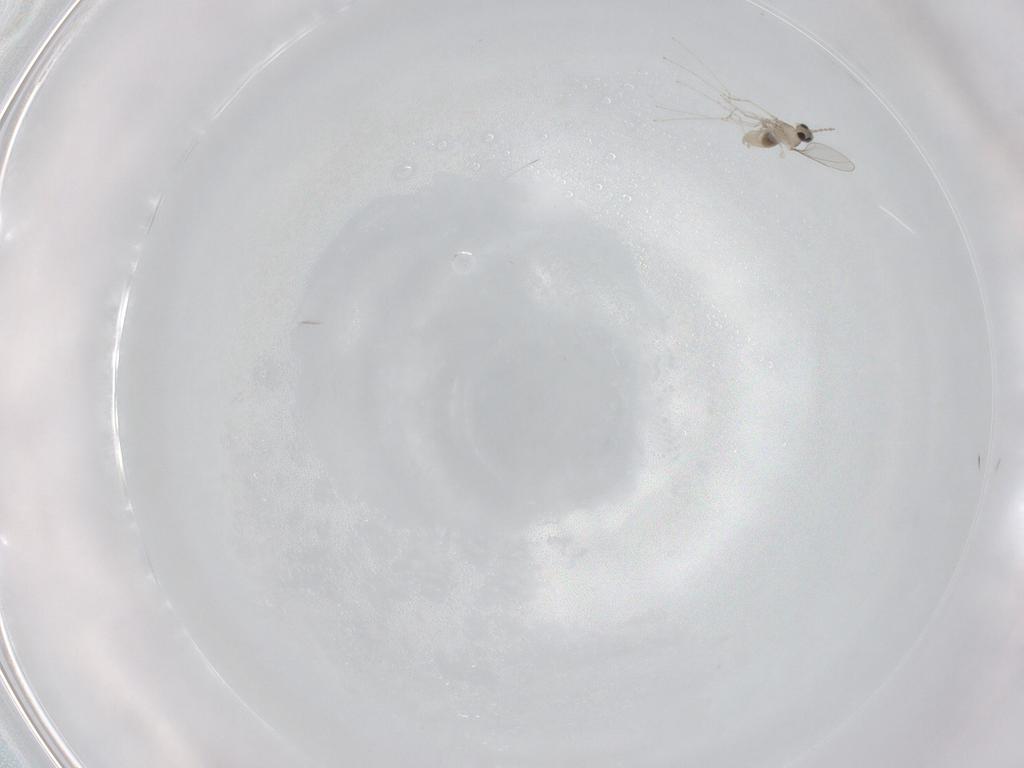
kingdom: Animalia
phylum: Arthropoda
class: Insecta
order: Diptera
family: Cecidomyiidae
